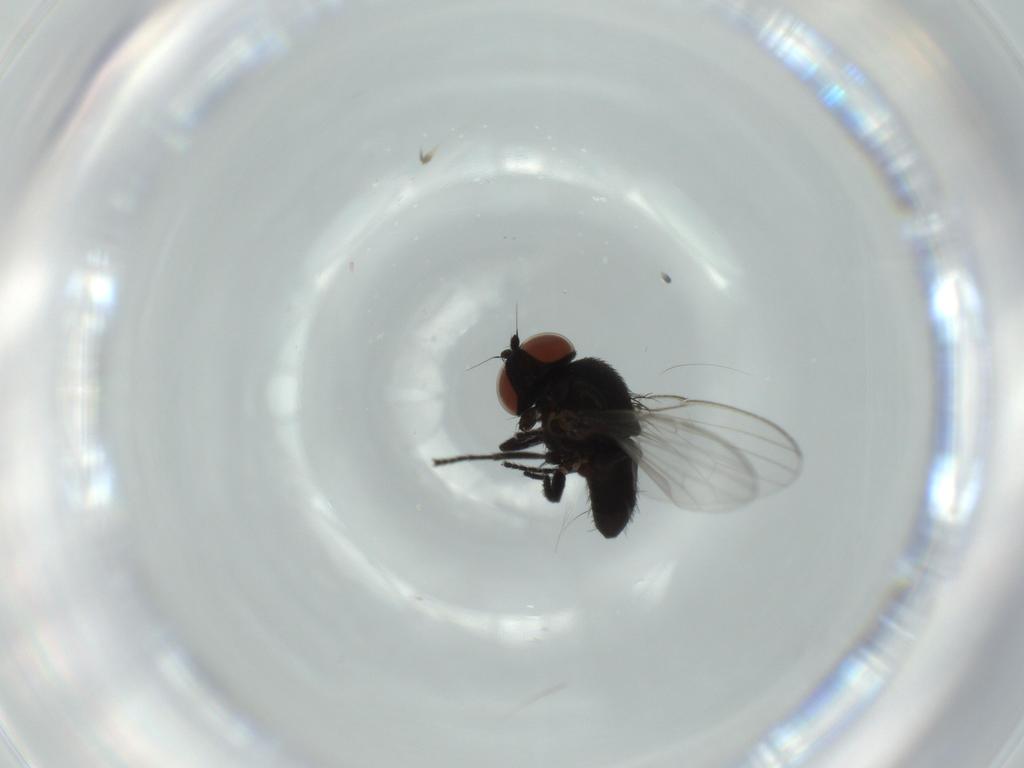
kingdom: Animalia
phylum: Arthropoda
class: Insecta
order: Diptera
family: Milichiidae
